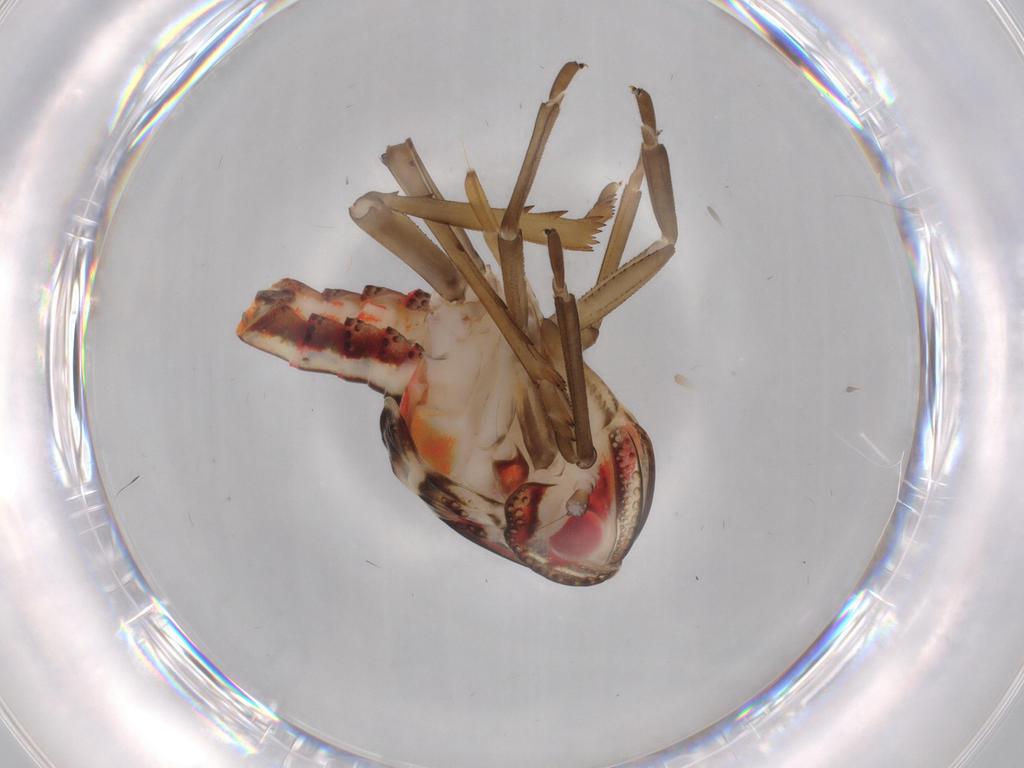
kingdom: Animalia
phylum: Arthropoda
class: Insecta
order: Hemiptera
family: Nogodinidae
